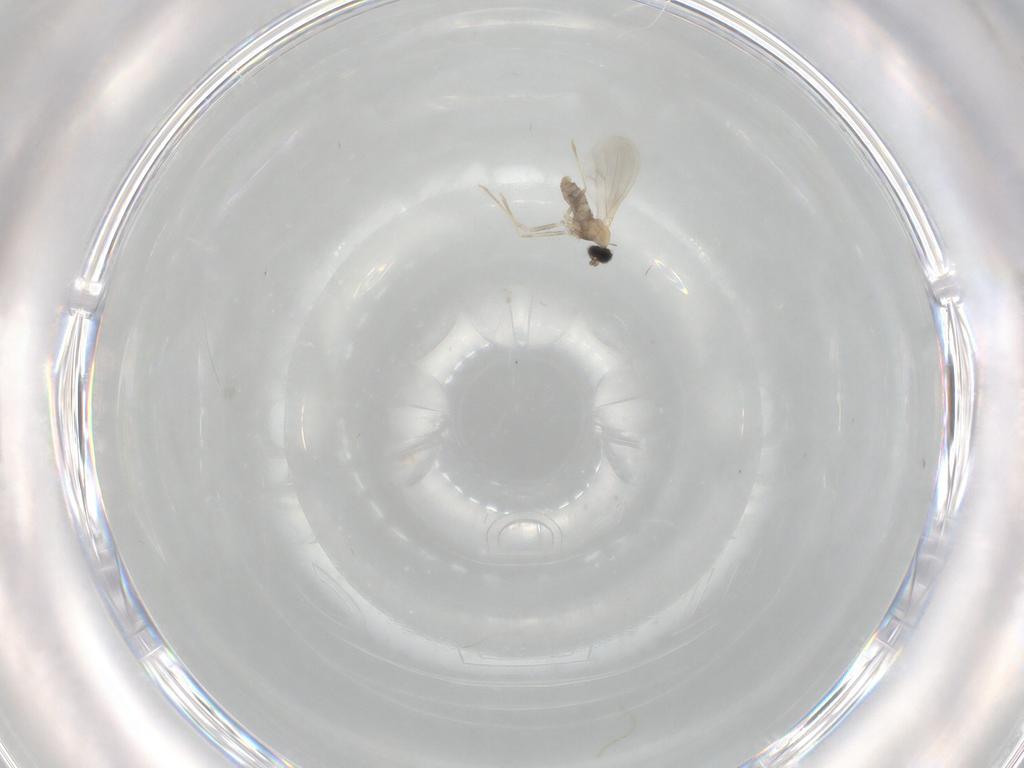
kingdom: Animalia
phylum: Arthropoda
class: Insecta
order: Diptera
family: Cecidomyiidae
